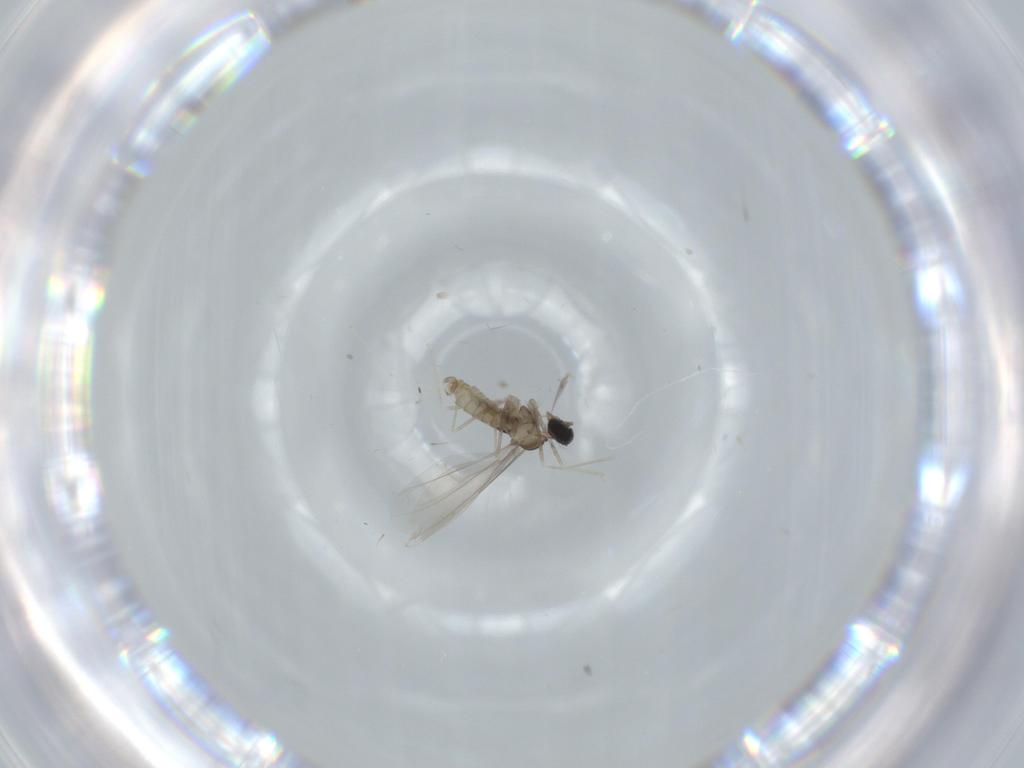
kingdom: Animalia
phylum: Arthropoda
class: Insecta
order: Diptera
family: Cecidomyiidae
